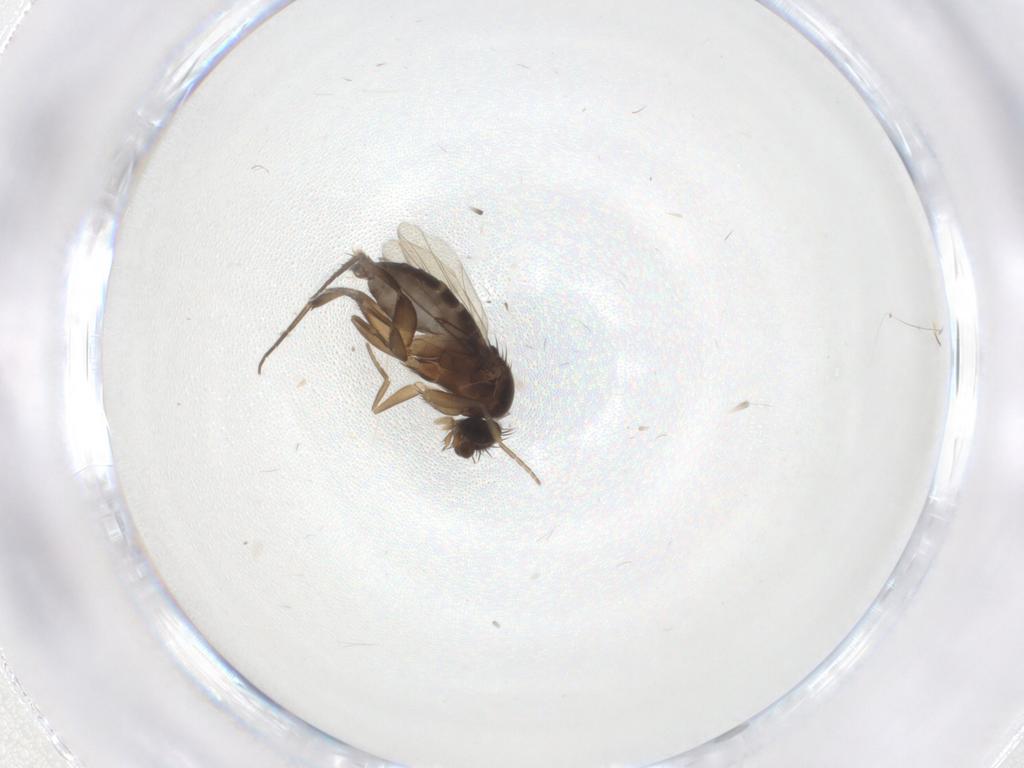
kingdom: Animalia
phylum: Arthropoda
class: Insecta
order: Diptera
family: Phoridae
